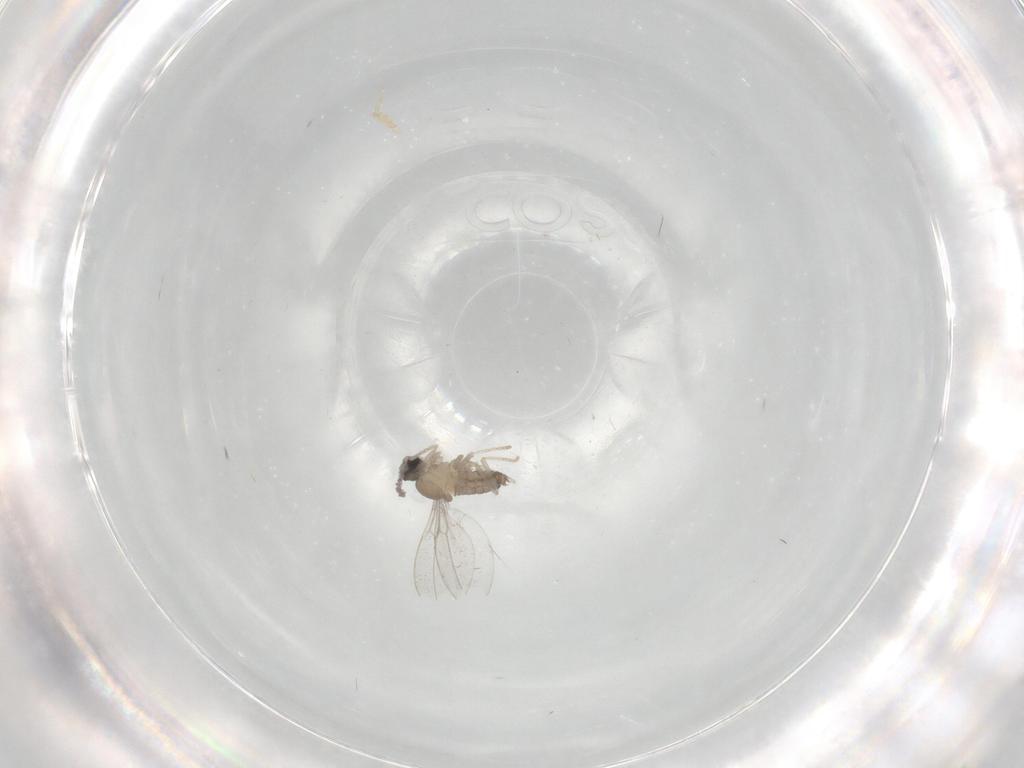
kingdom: Animalia
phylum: Arthropoda
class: Insecta
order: Diptera
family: Cecidomyiidae
